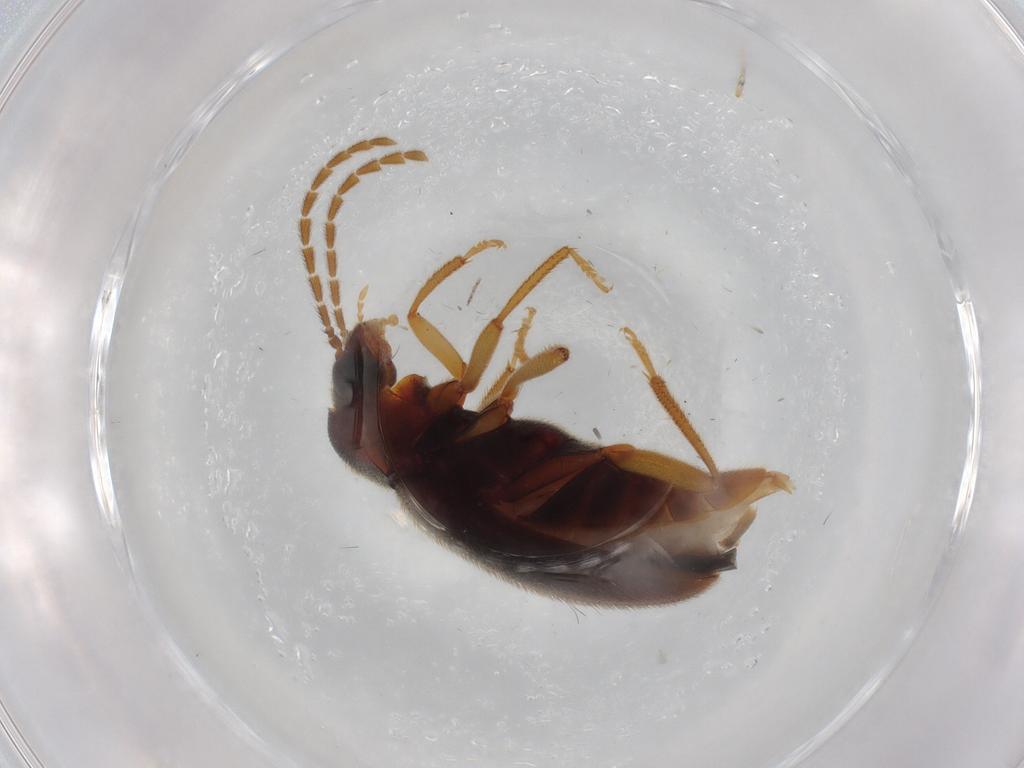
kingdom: Animalia
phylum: Arthropoda
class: Insecta
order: Coleoptera
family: Ptilodactylidae
